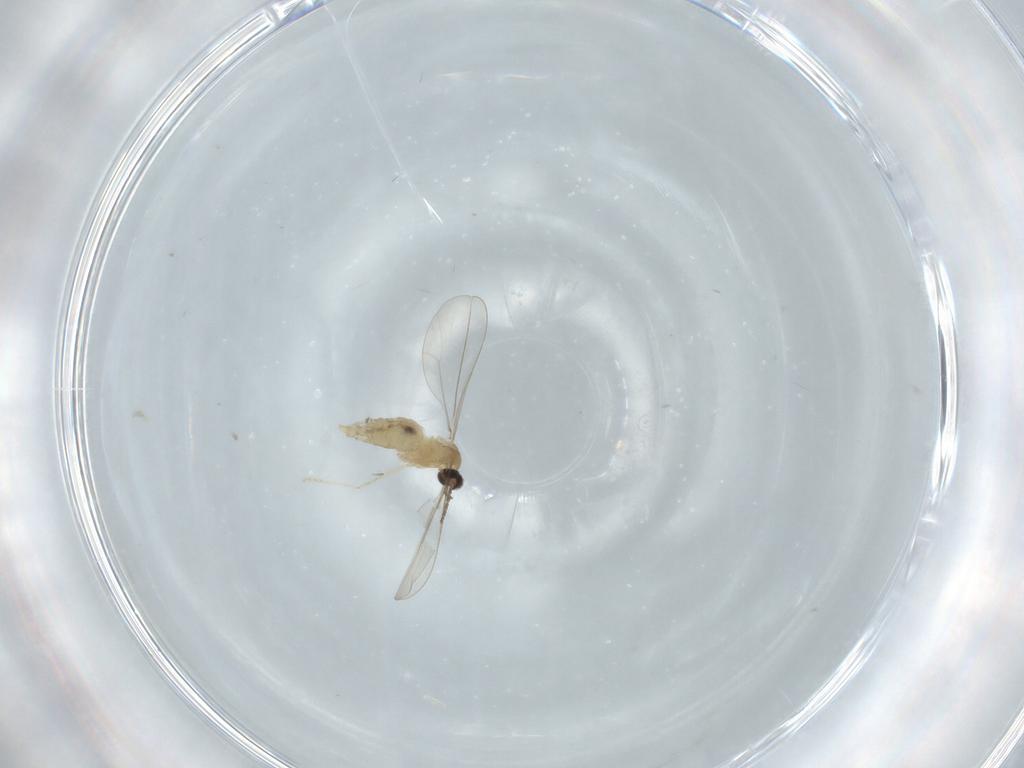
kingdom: Animalia
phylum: Arthropoda
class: Insecta
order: Diptera
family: Cecidomyiidae
